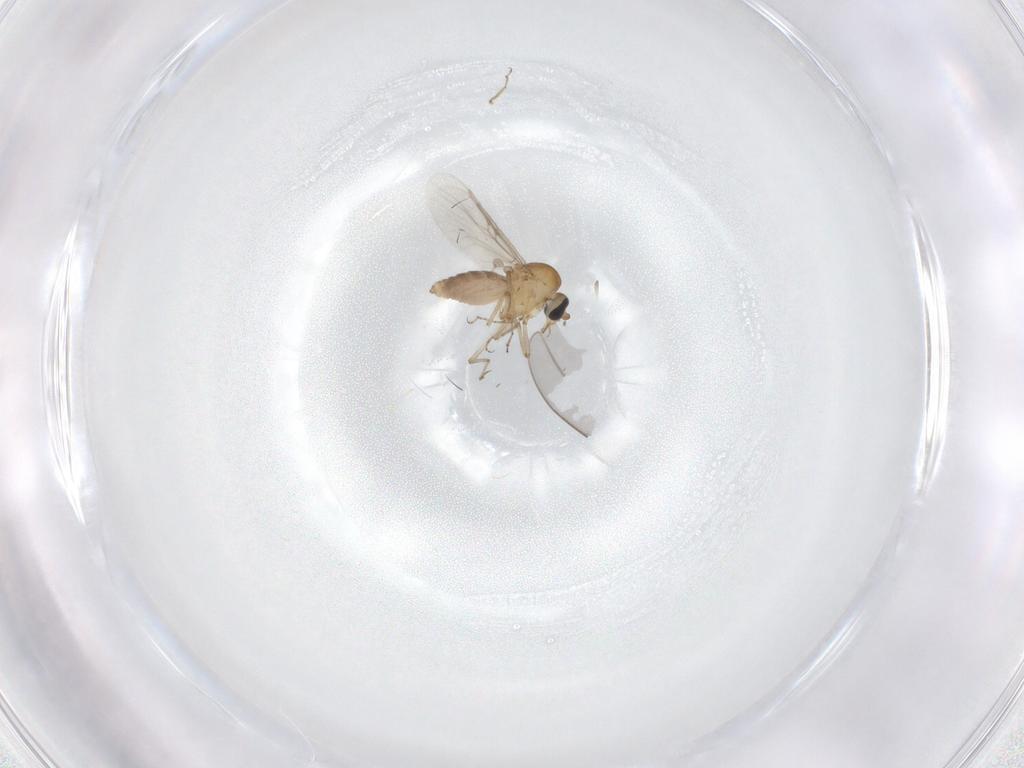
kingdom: Animalia
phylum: Arthropoda
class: Insecta
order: Diptera
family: Ceratopogonidae
